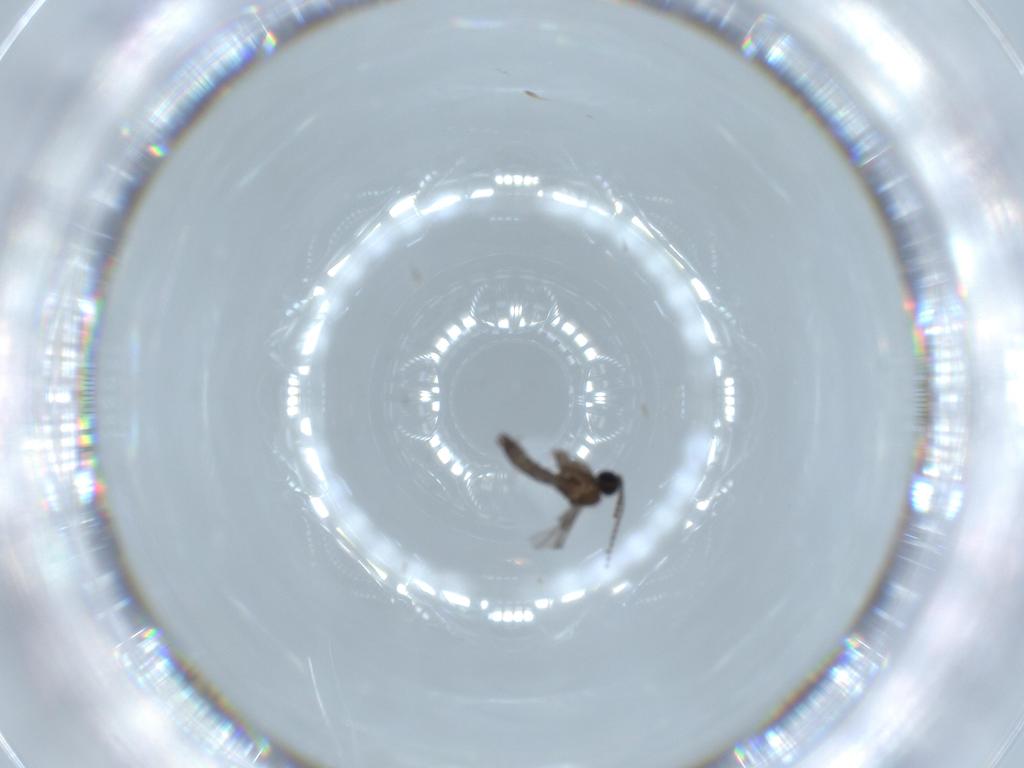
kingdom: Animalia
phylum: Arthropoda
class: Insecta
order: Diptera
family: Sciaridae
